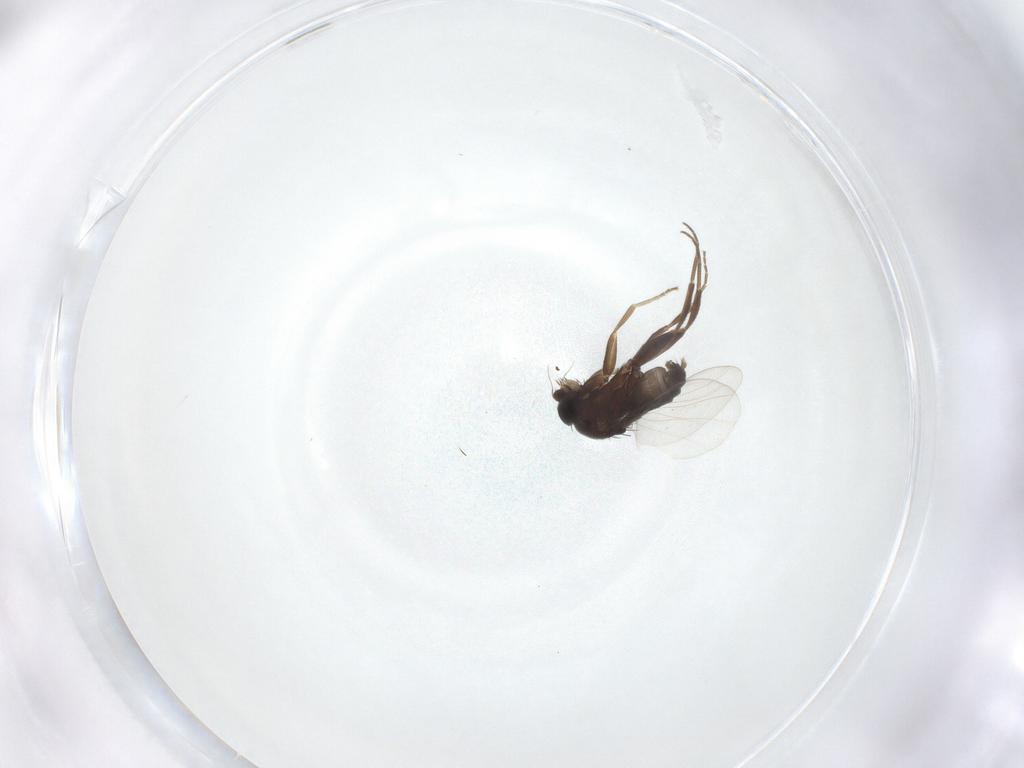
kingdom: Animalia
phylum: Arthropoda
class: Insecta
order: Diptera
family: Phoridae
